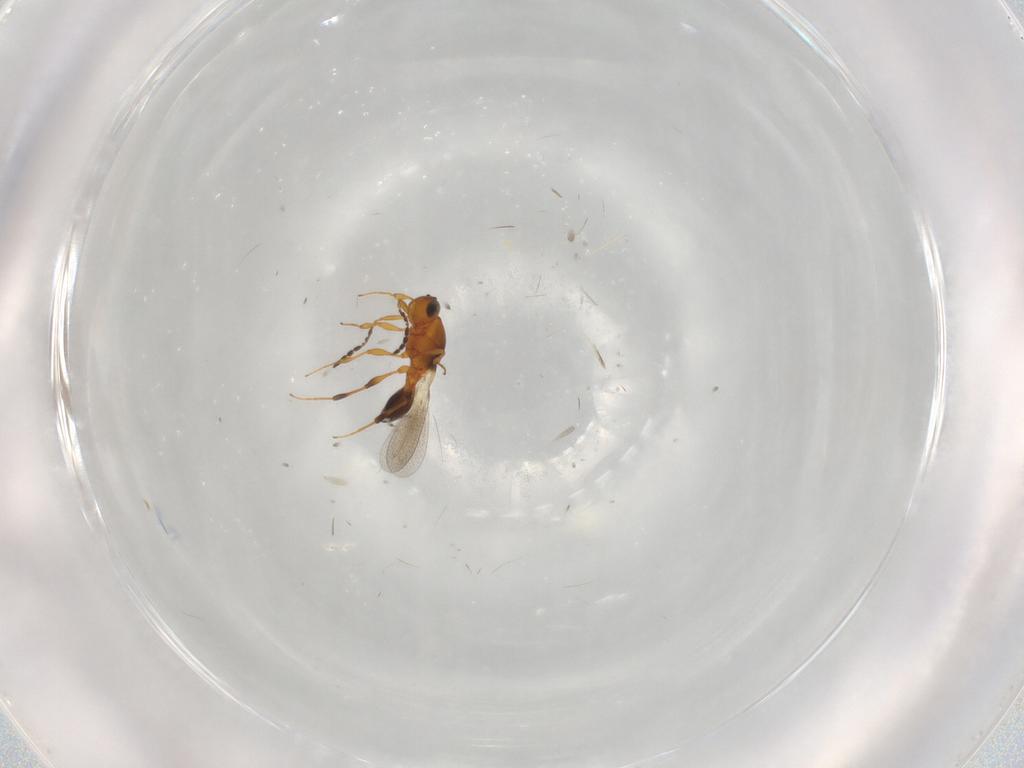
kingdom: Animalia
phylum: Arthropoda
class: Insecta
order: Hymenoptera
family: Platygastridae
